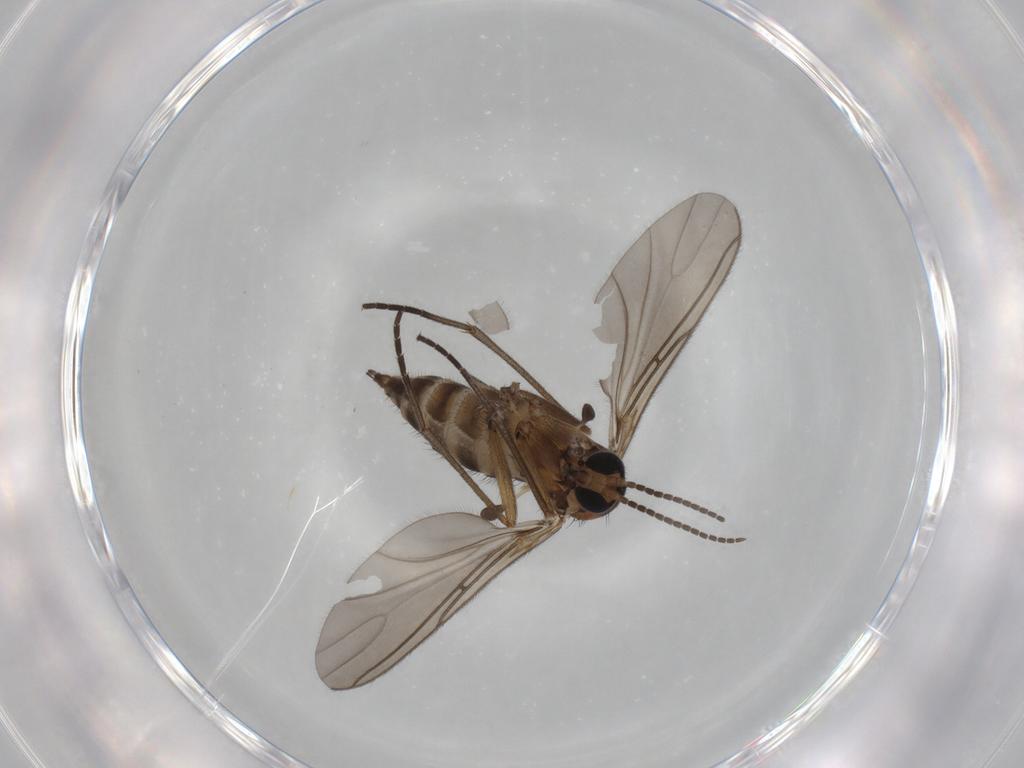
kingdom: Animalia
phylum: Arthropoda
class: Insecta
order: Diptera
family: Sciaridae
